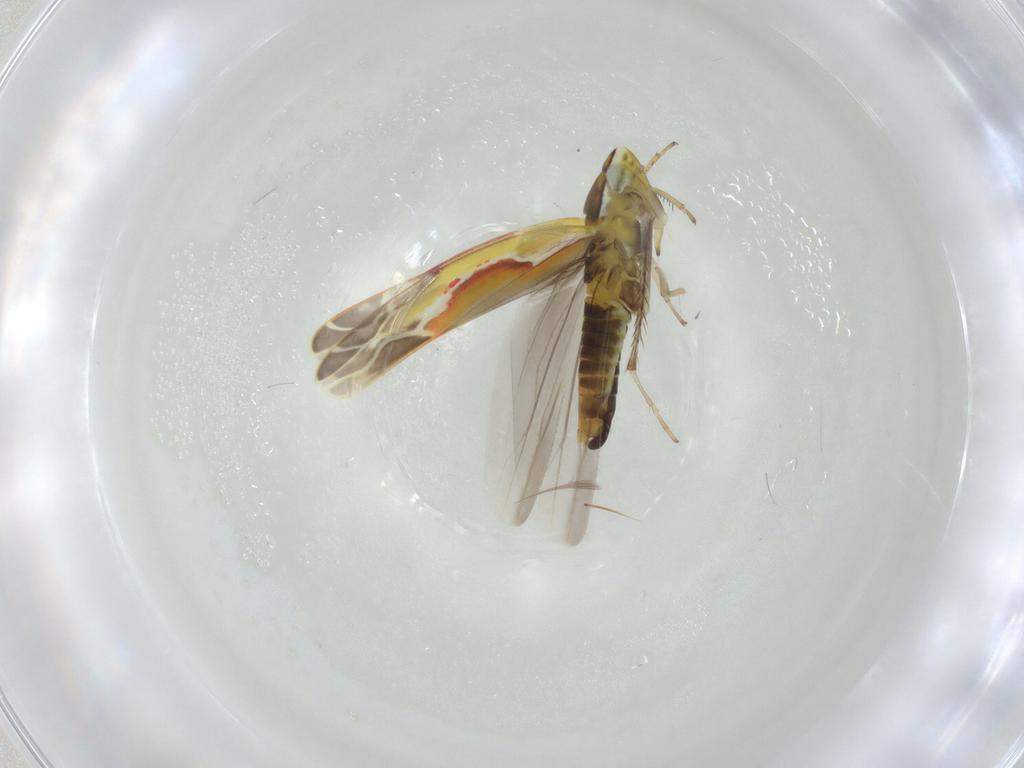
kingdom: Animalia
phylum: Arthropoda
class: Insecta
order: Hemiptera
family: Cicadellidae
